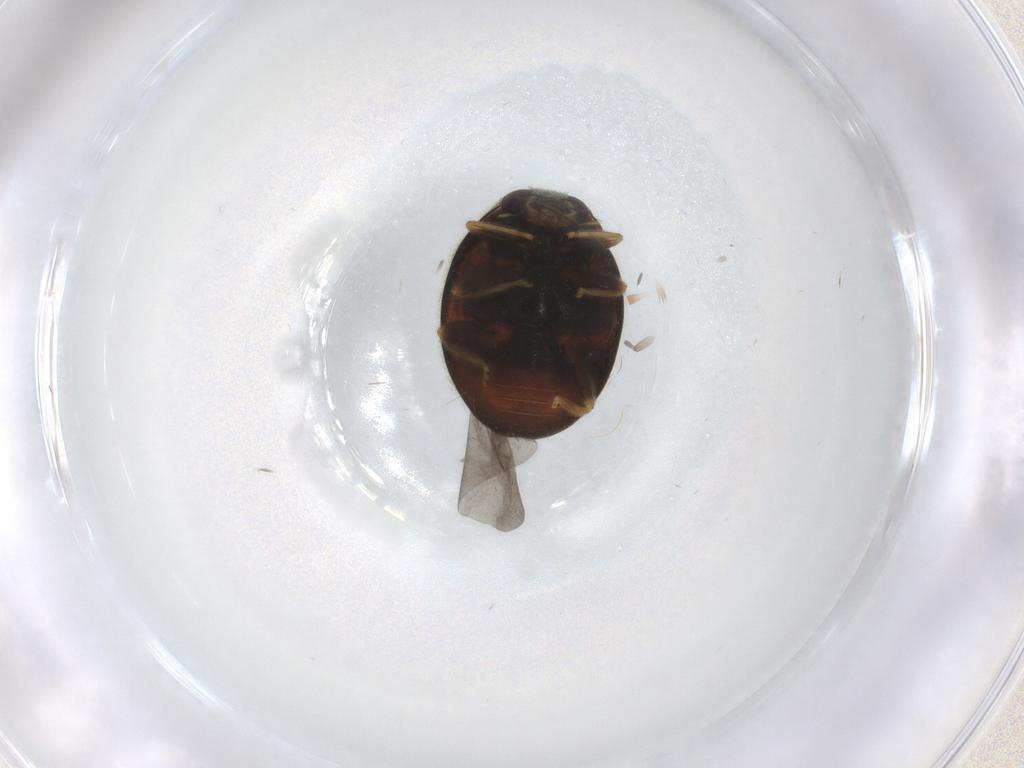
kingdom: Animalia
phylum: Arthropoda
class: Insecta
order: Coleoptera
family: Coccinellidae
